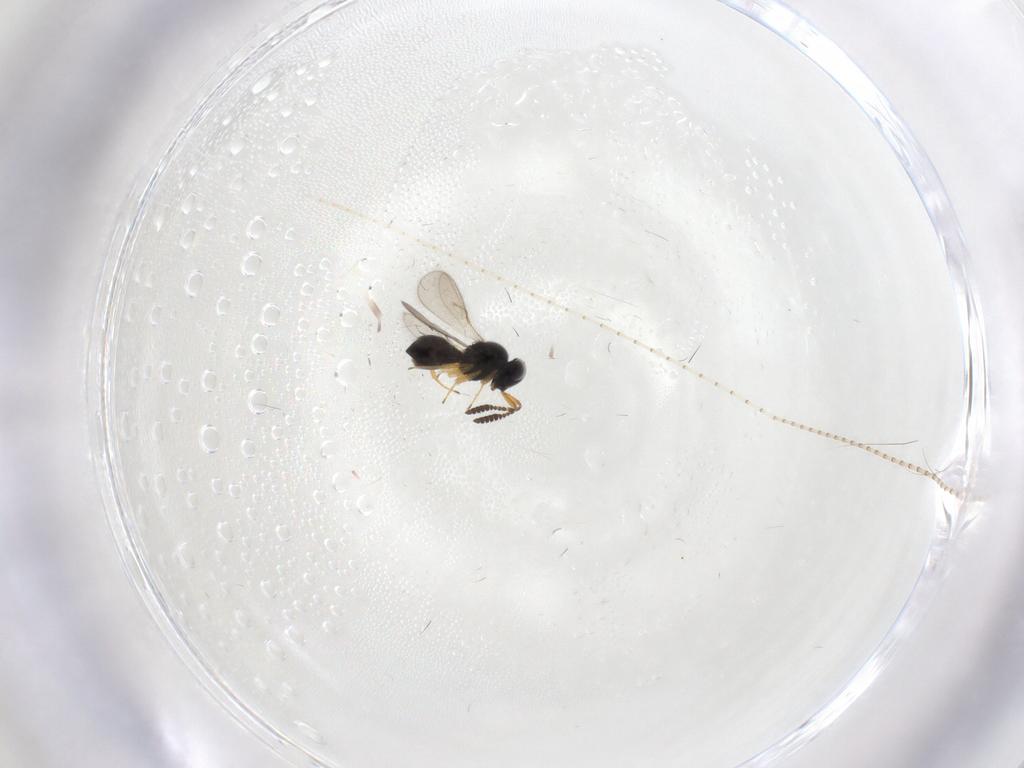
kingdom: Animalia
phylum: Arthropoda
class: Insecta
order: Hymenoptera
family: Scelionidae
